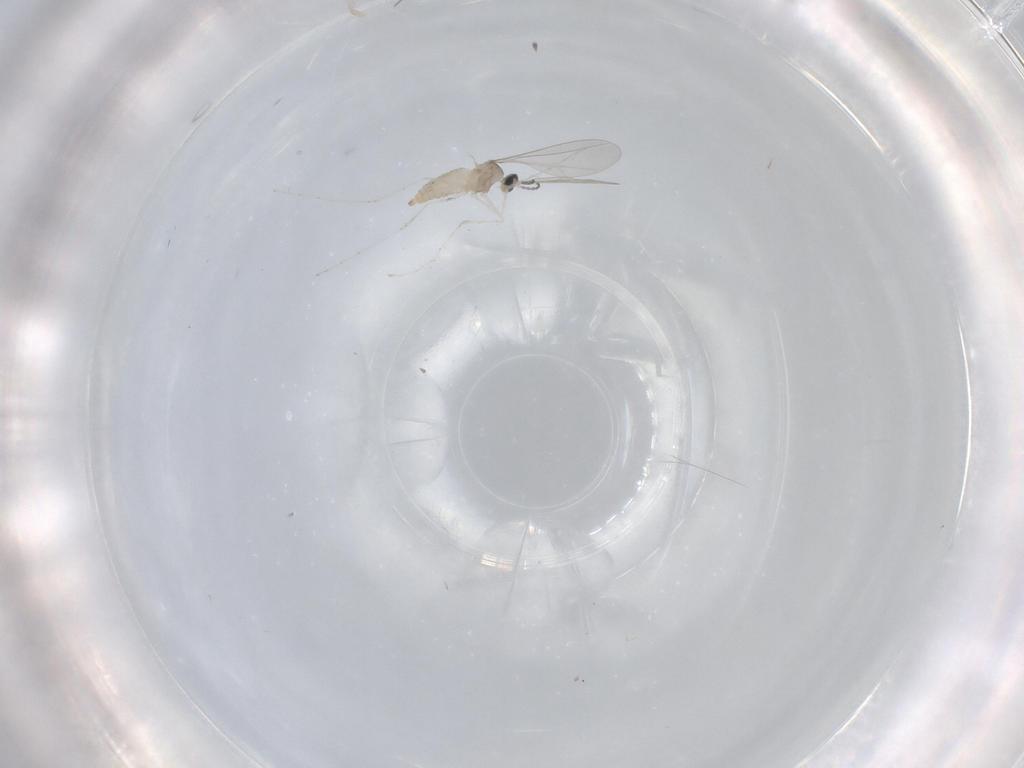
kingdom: Animalia
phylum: Arthropoda
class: Insecta
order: Diptera
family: Cecidomyiidae
